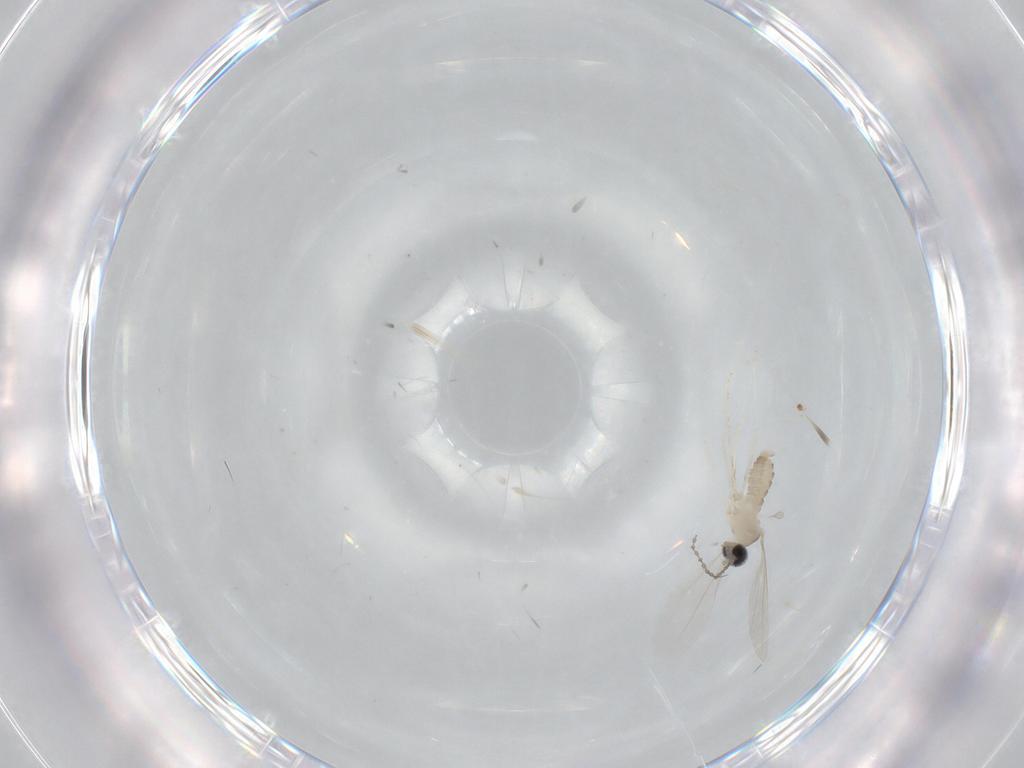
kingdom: Animalia
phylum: Arthropoda
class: Insecta
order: Diptera
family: Cecidomyiidae
